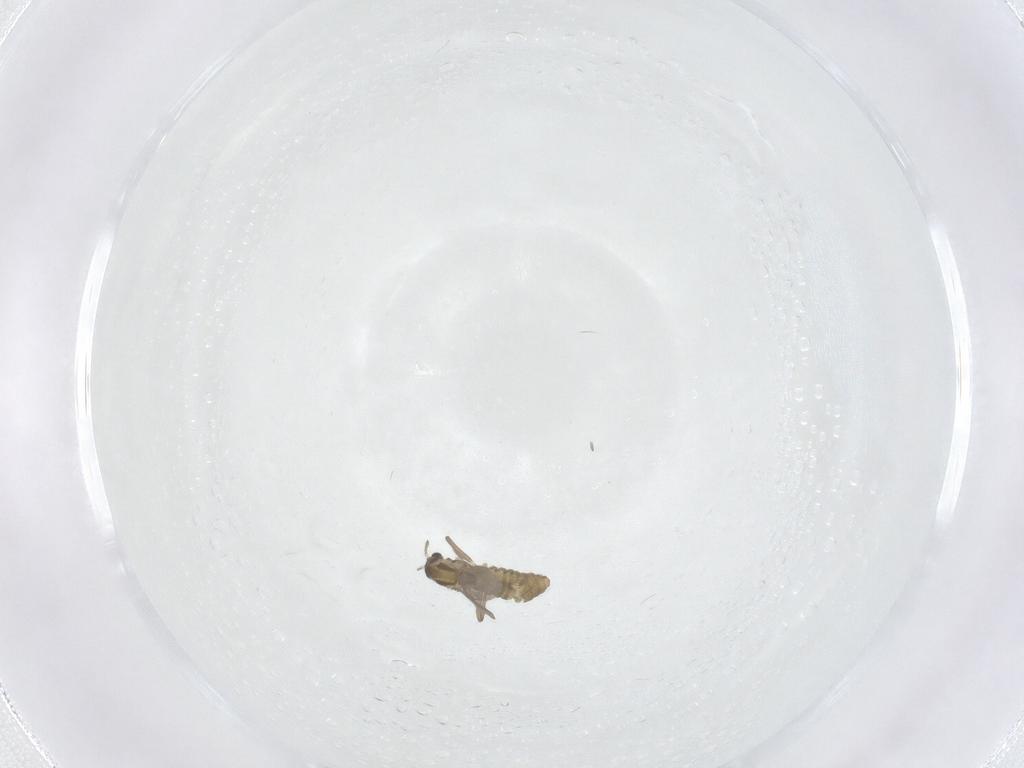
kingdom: Animalia
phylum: Arthropoda
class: Insecta
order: Diptera
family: Chironomidae
